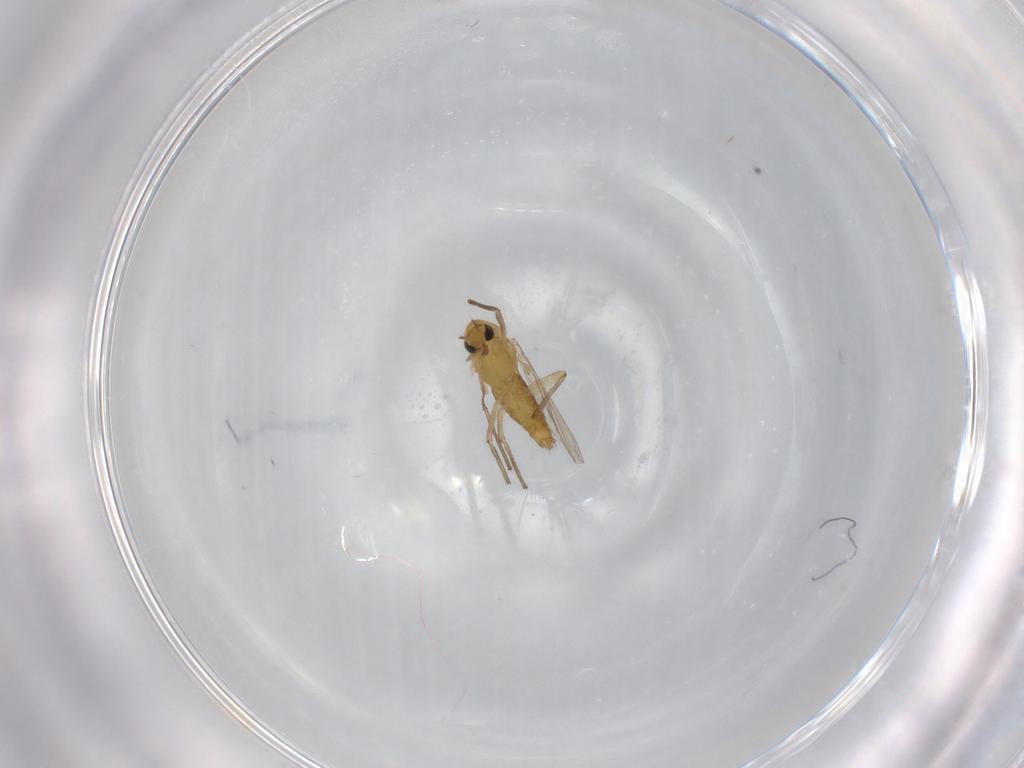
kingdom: Animalia
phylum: Arthropoda
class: Insecta
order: Diptera
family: Chironomidae
